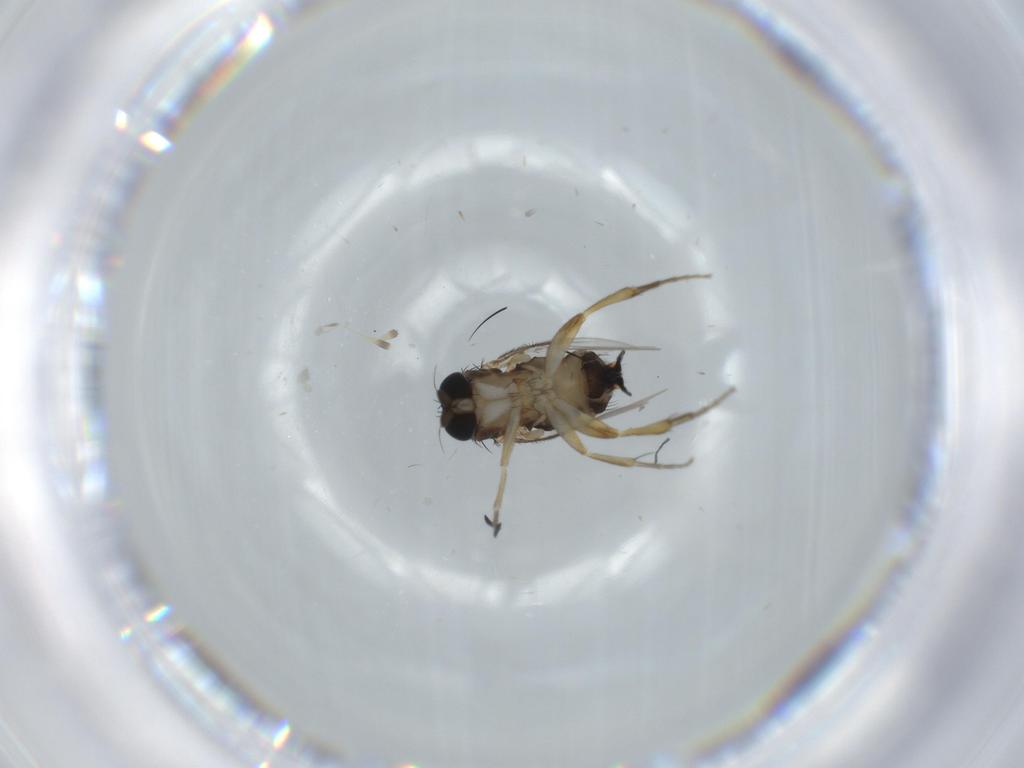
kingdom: Animalia
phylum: Arthropoda
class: Insecta
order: Diptera
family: Phoridae
